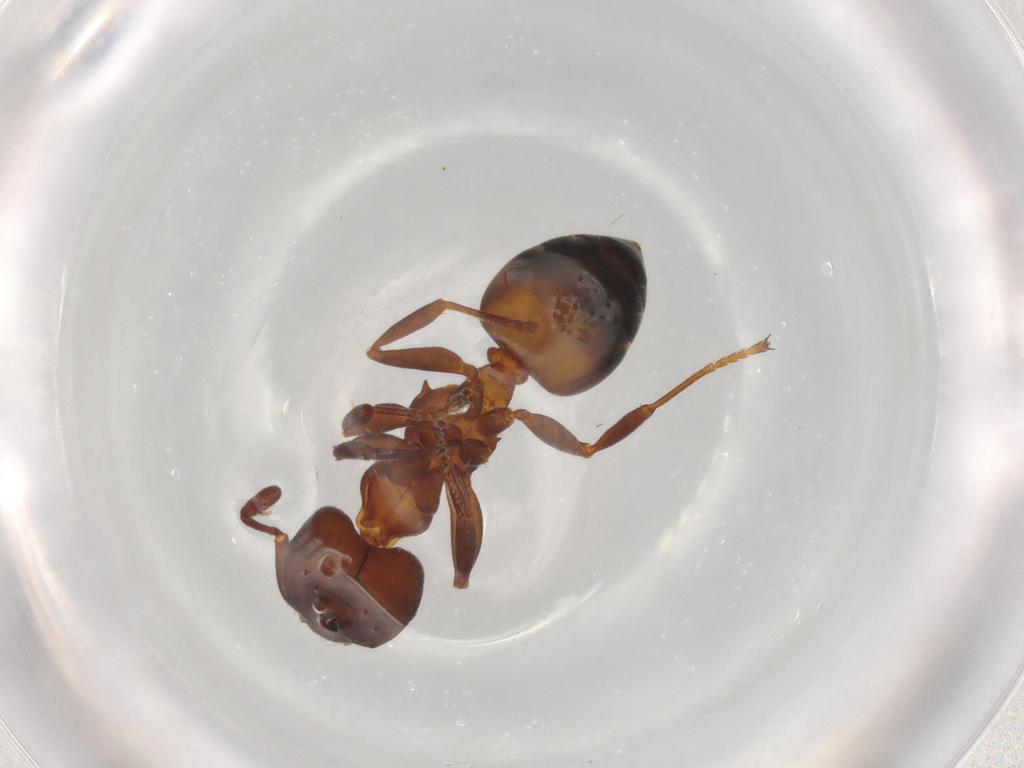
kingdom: Animalia
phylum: Arthropoda
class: Insecta
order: Hymenoptera
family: Formicidae
